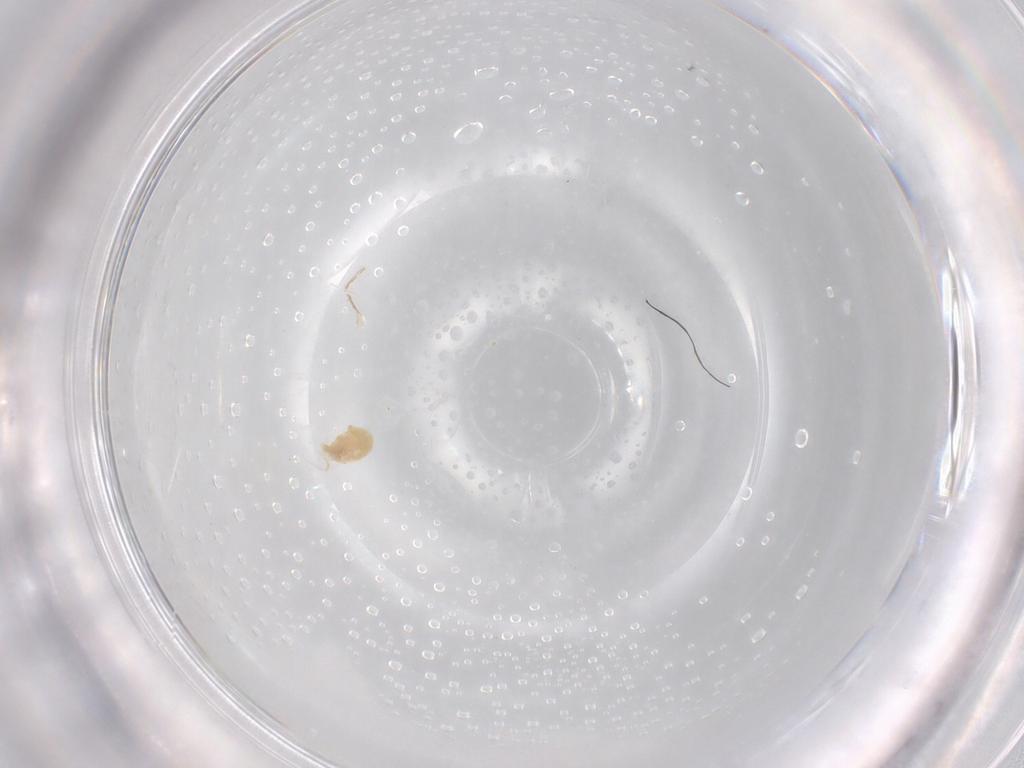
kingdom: Animalia
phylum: Arthropoda
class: Arachnida
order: Trombidiformes
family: Eupodidae
